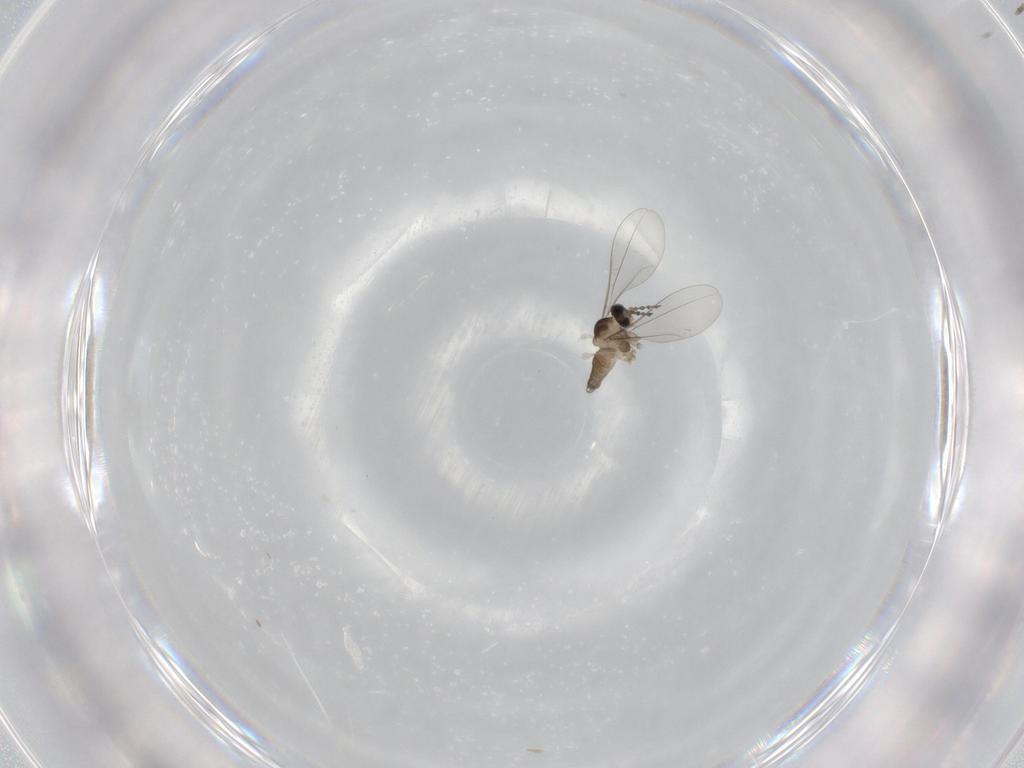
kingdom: Animalia
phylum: Arthropoda
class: Insecta
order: Diptera
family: Cecidomyiidae
